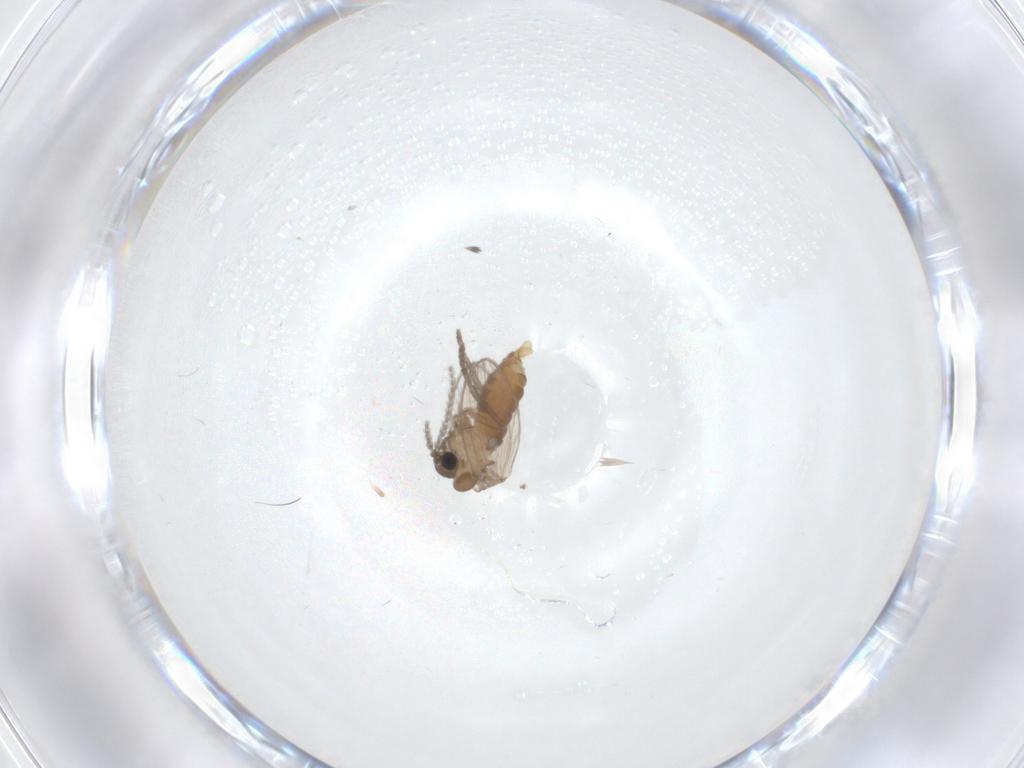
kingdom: Animalia
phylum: Arthropoda
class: Insecta
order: Diptera
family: Psychodidae
